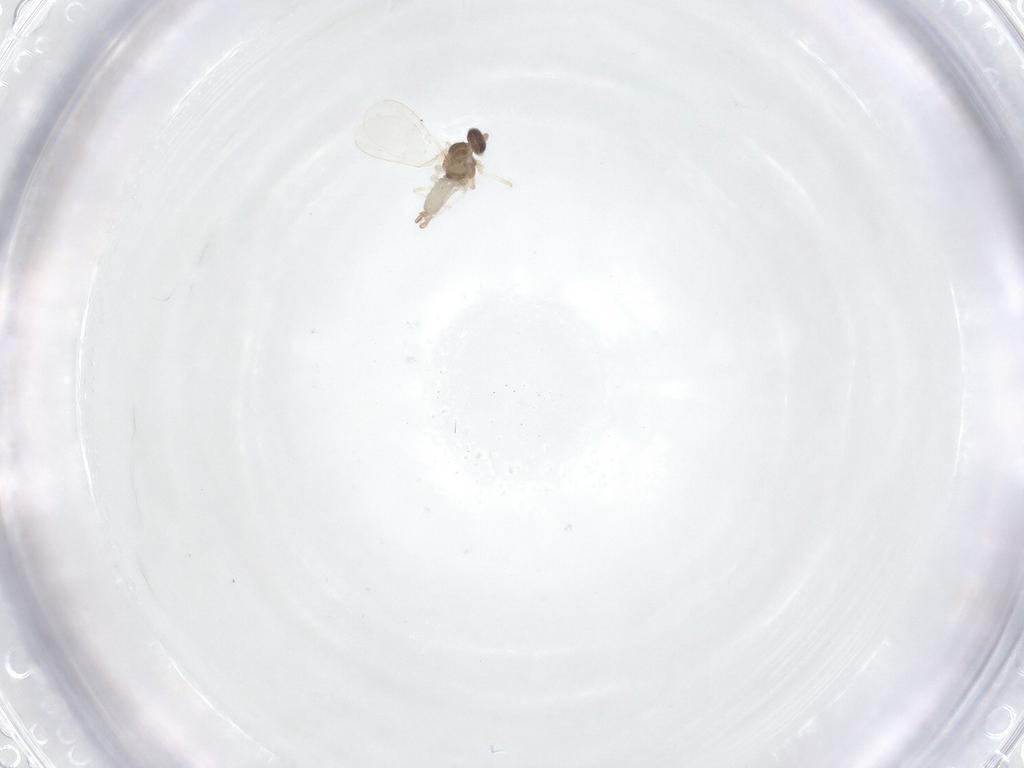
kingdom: Animalia
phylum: Arthropoda
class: Insecta
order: Diptera
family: Cecidomyiidae
